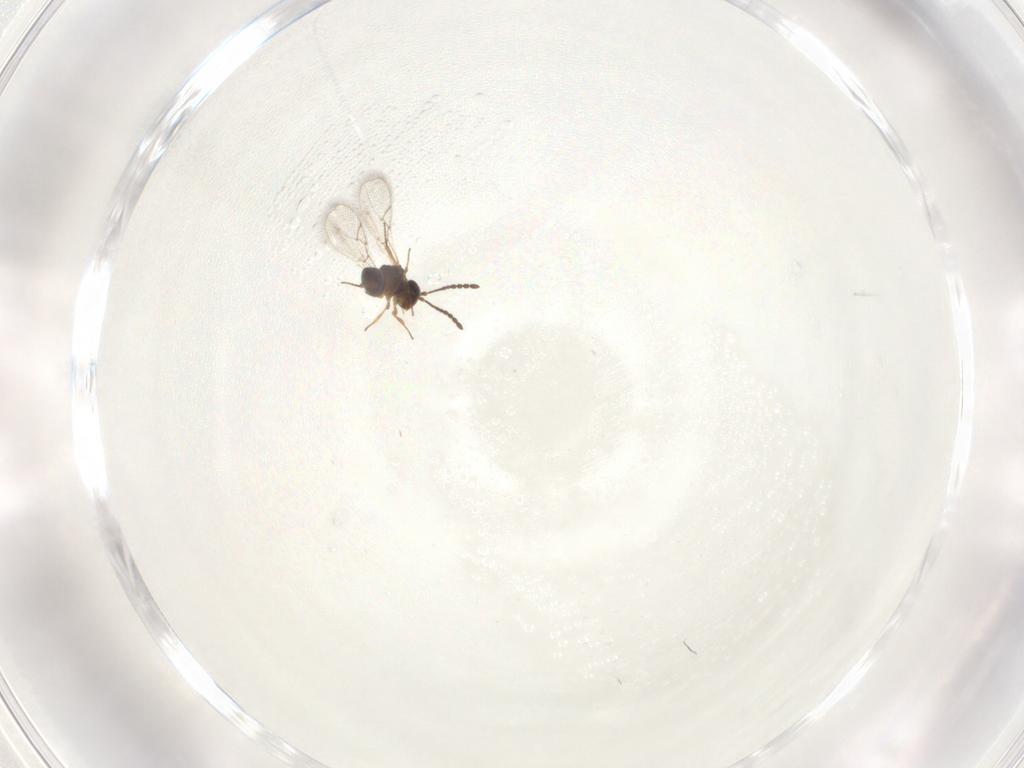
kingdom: Animalia
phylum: Arthropoda
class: Insecta
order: Hymenoptera
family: Figitidae
